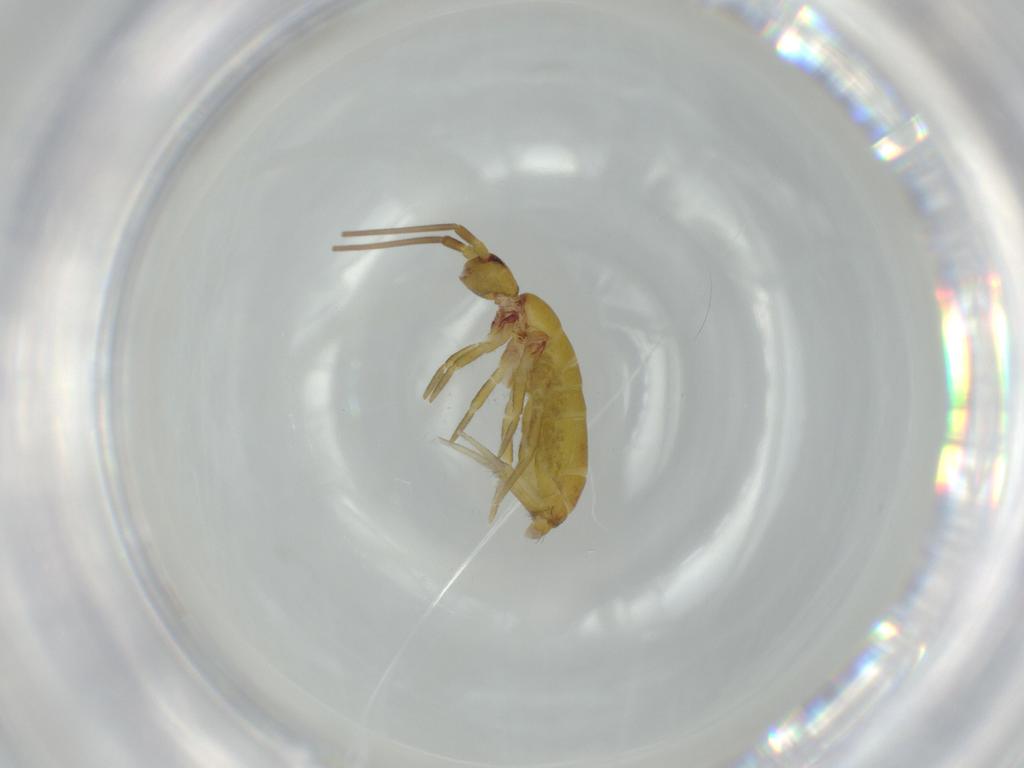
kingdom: Animalia
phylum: Arthropoda
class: Collembola
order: Entomobryomorpha
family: Tomoceridae
